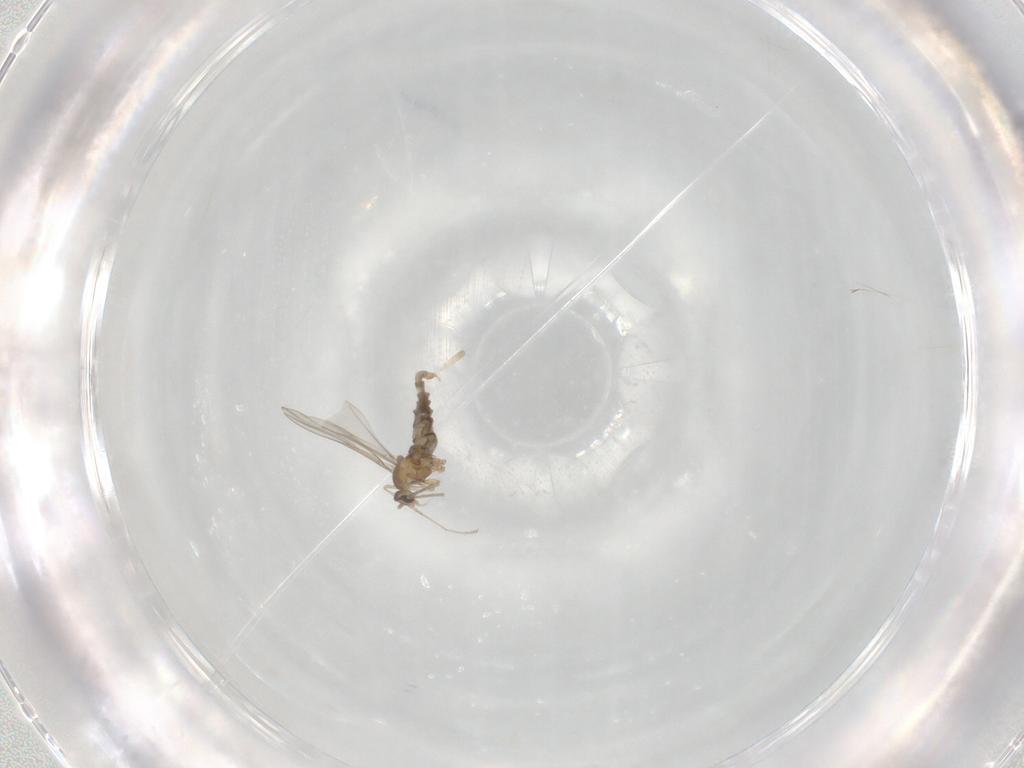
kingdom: Animalia
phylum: Arthropoda
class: Insecta
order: Diptera
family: Cecidomyiidae
